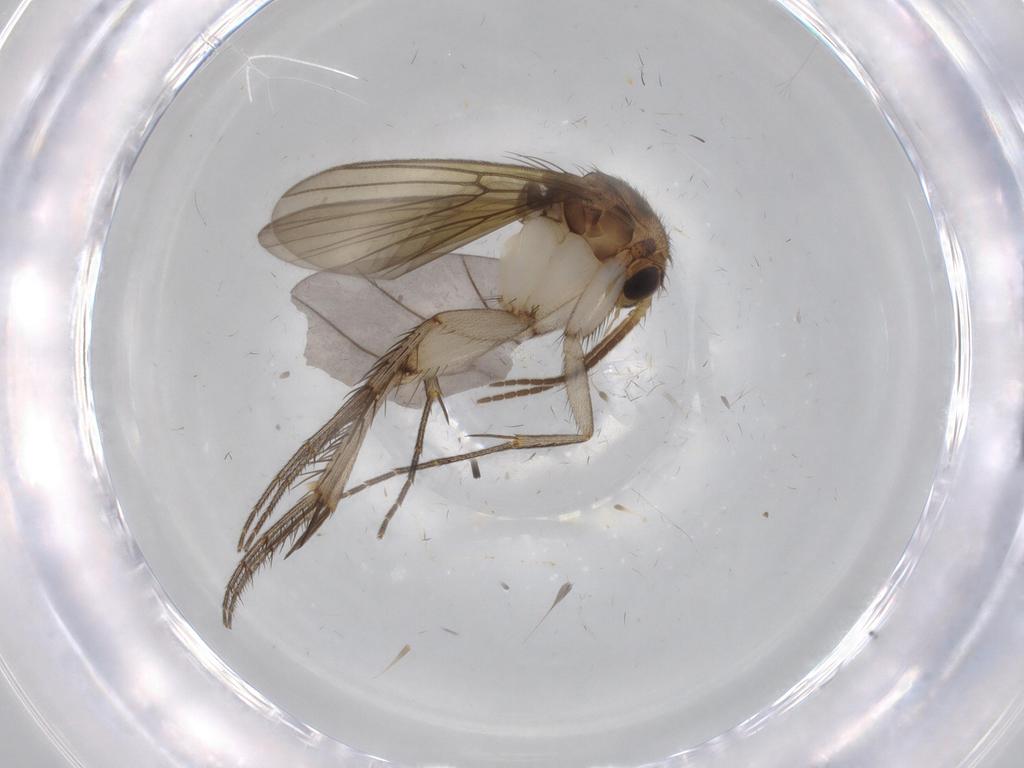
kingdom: Animalia
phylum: Arthropoda
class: Insecta
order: Diptera
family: Cecidomyiidae
